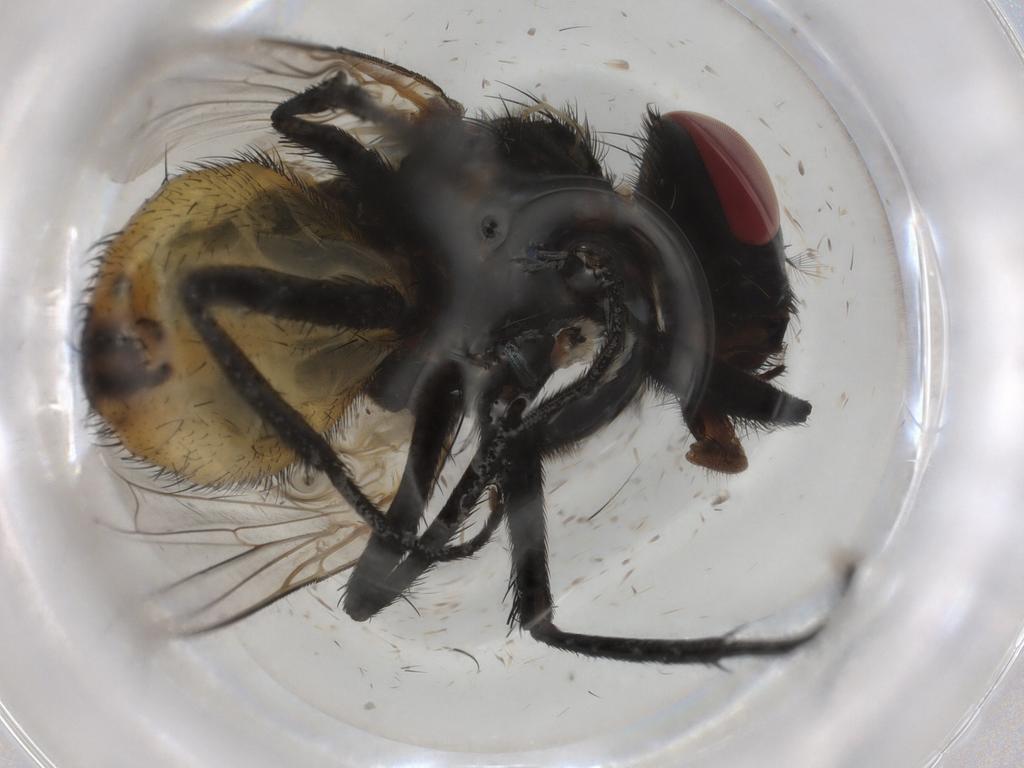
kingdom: Animalia
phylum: Arthropoda
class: Insecta
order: Diptera
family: Muscidae
